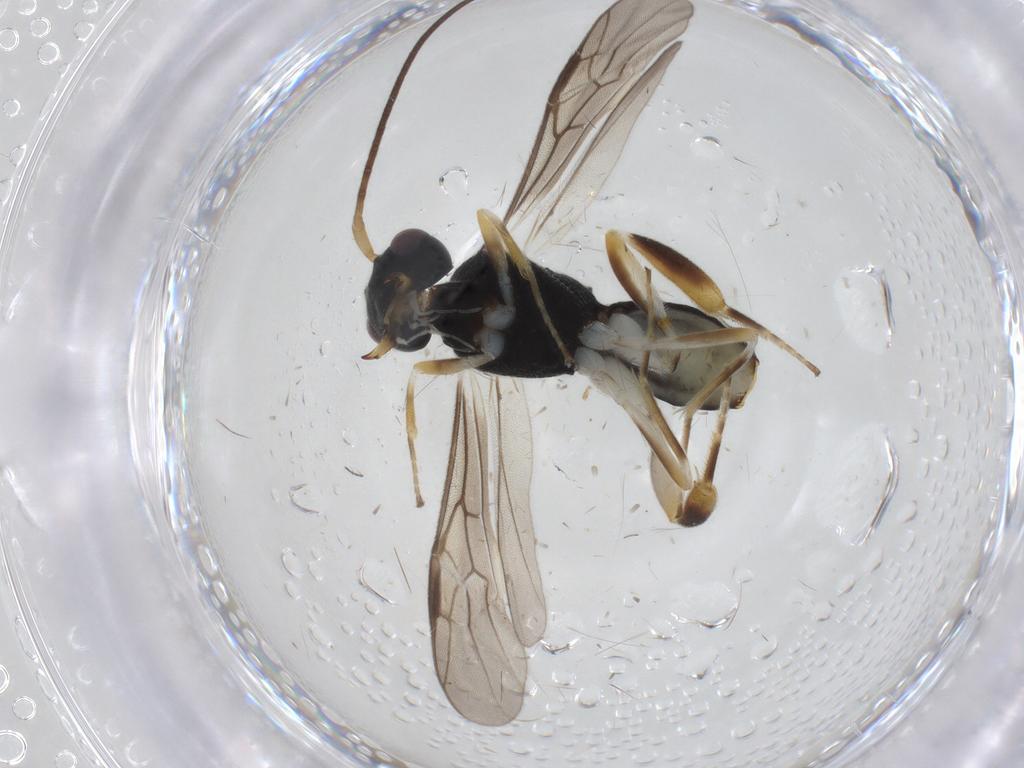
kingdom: Animalia
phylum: Arthropoda
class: Insecta
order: Hymenoptera
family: Braconidae
